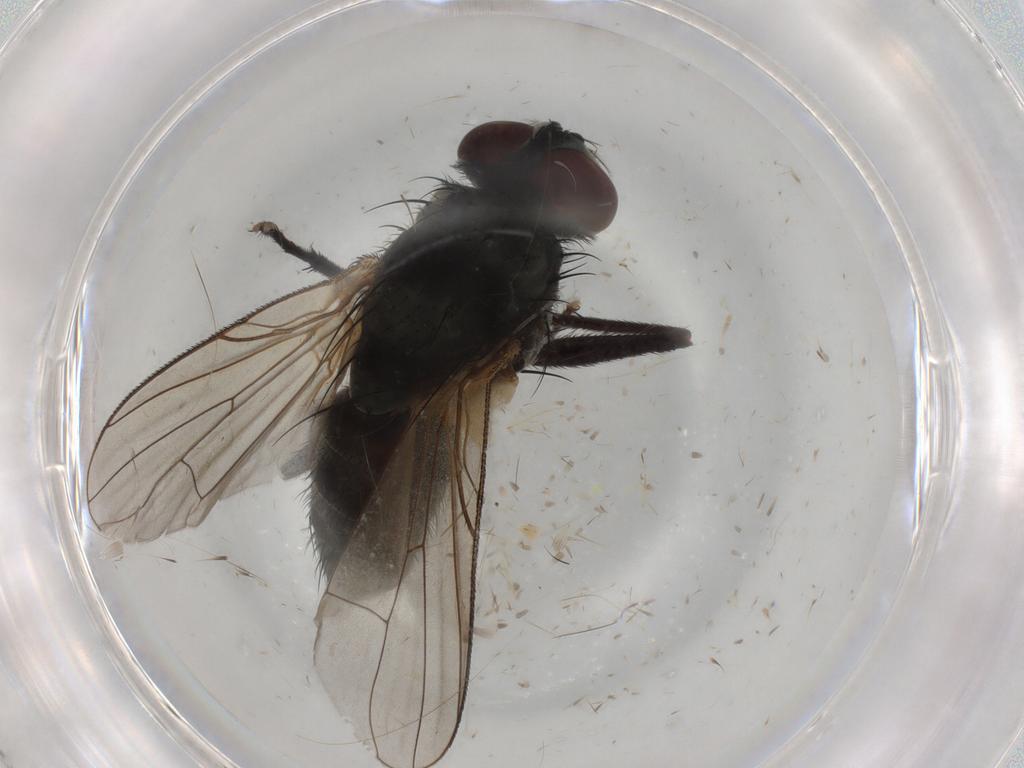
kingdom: Animalia
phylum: Arthropoda
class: Insecta
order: Diptera
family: Muscidae
